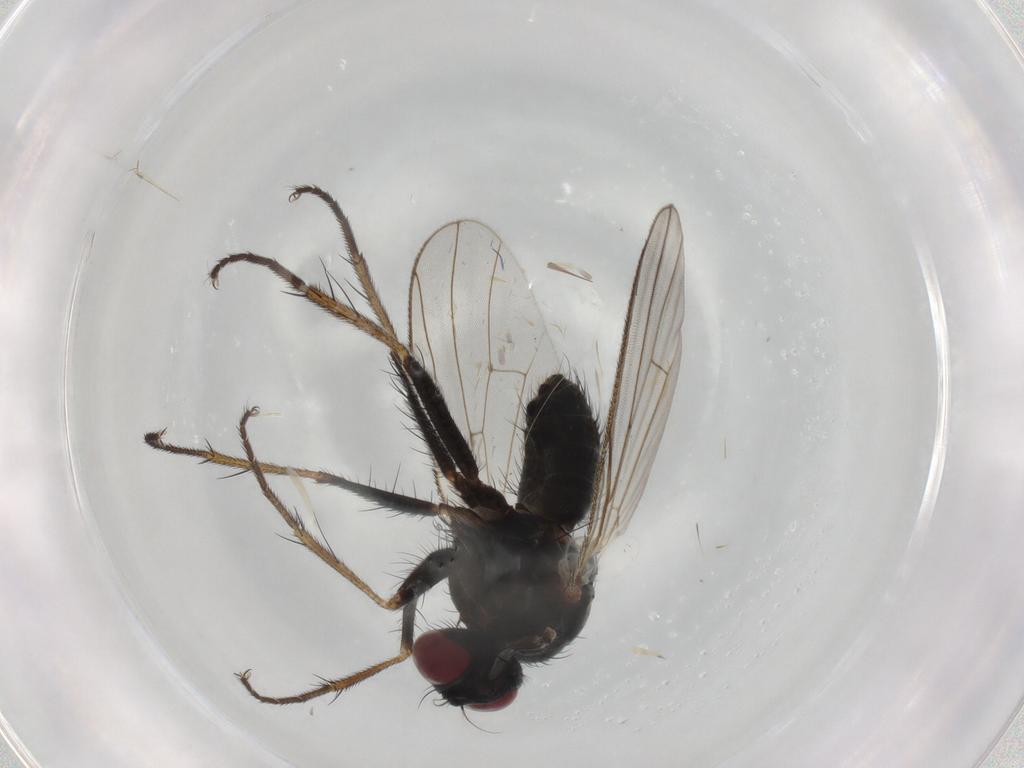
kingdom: Animalia
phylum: Arthropoda
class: Insecta
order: Diptera
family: Muscidae
